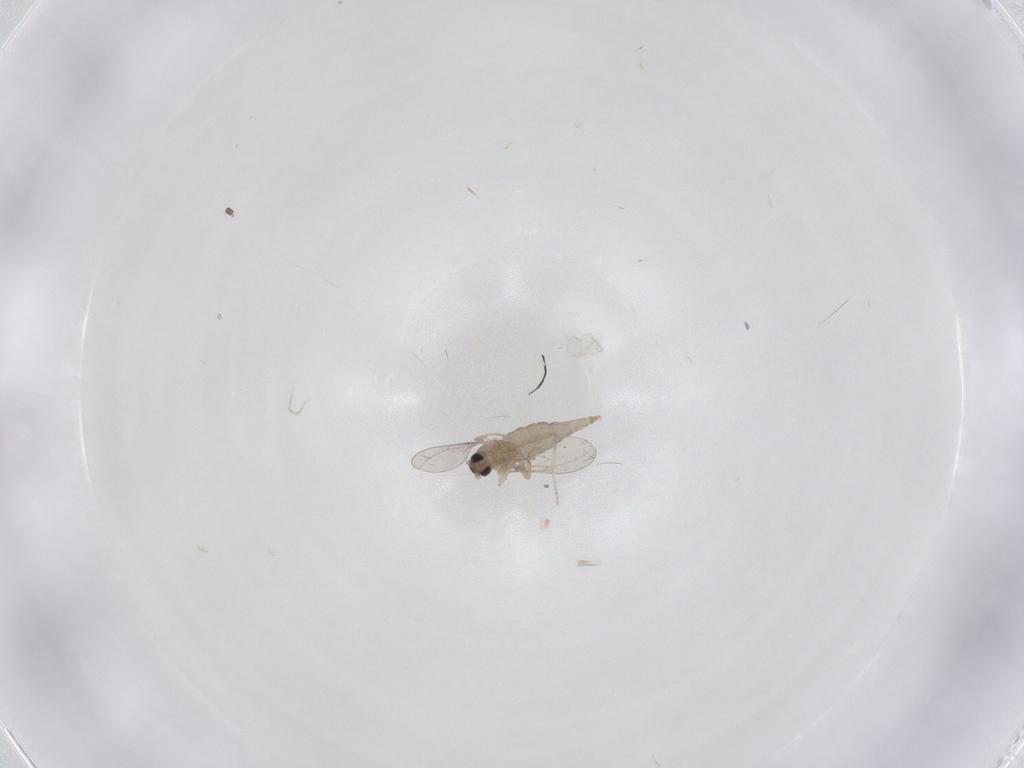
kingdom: Animalia
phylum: Arthropoda
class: Insecta
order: Diptera
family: Cecidomyiidae
